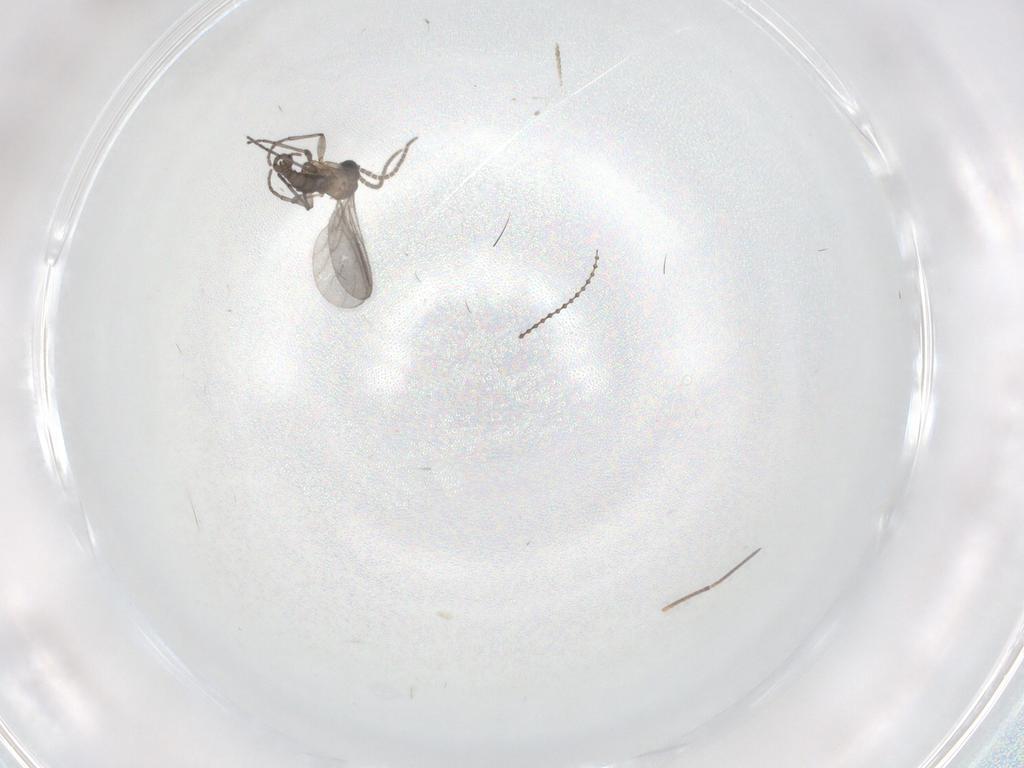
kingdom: Animalia
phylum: Arthropoda
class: Insecta
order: Diptera
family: Sciaridae
